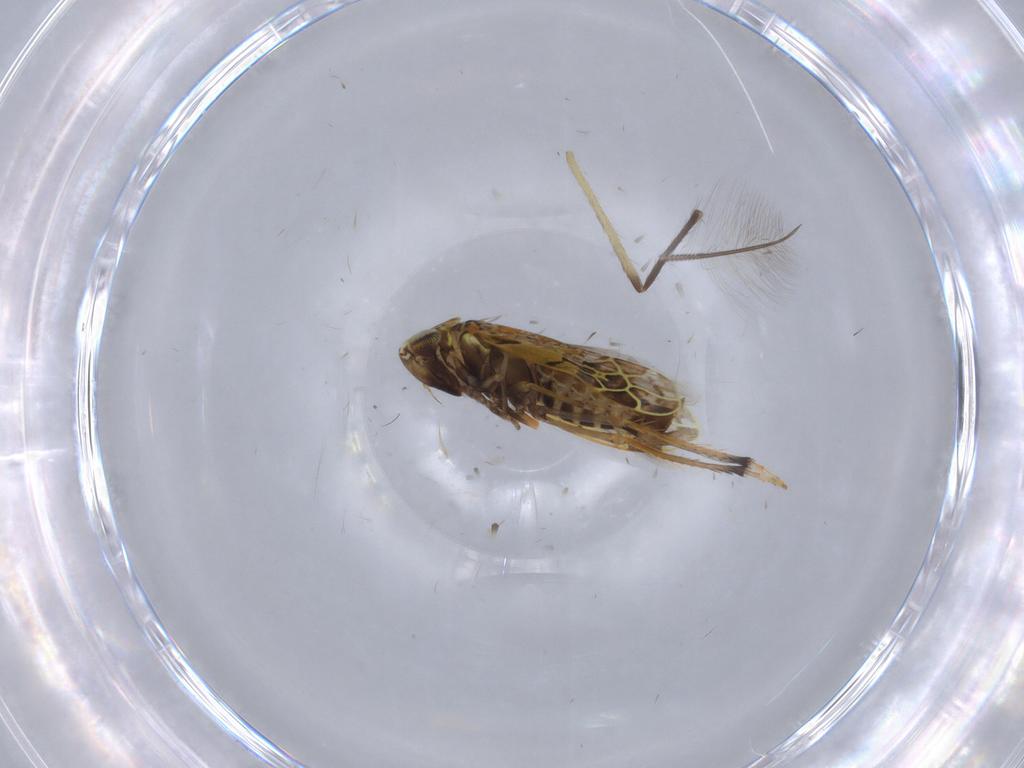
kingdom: Animalia
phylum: Arthropoda
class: Insecta
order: Hemiptera
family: Cicadellidae
